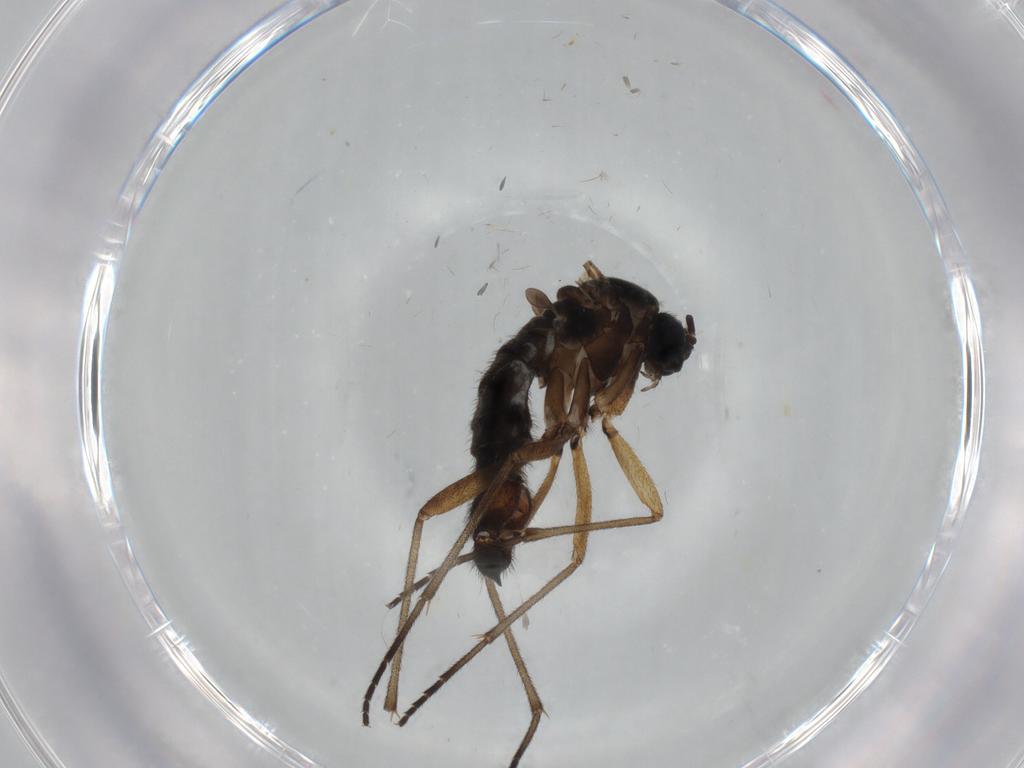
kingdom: Animalia
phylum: Arthropoda
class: Insecta
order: Diptera
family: Sciaridae
